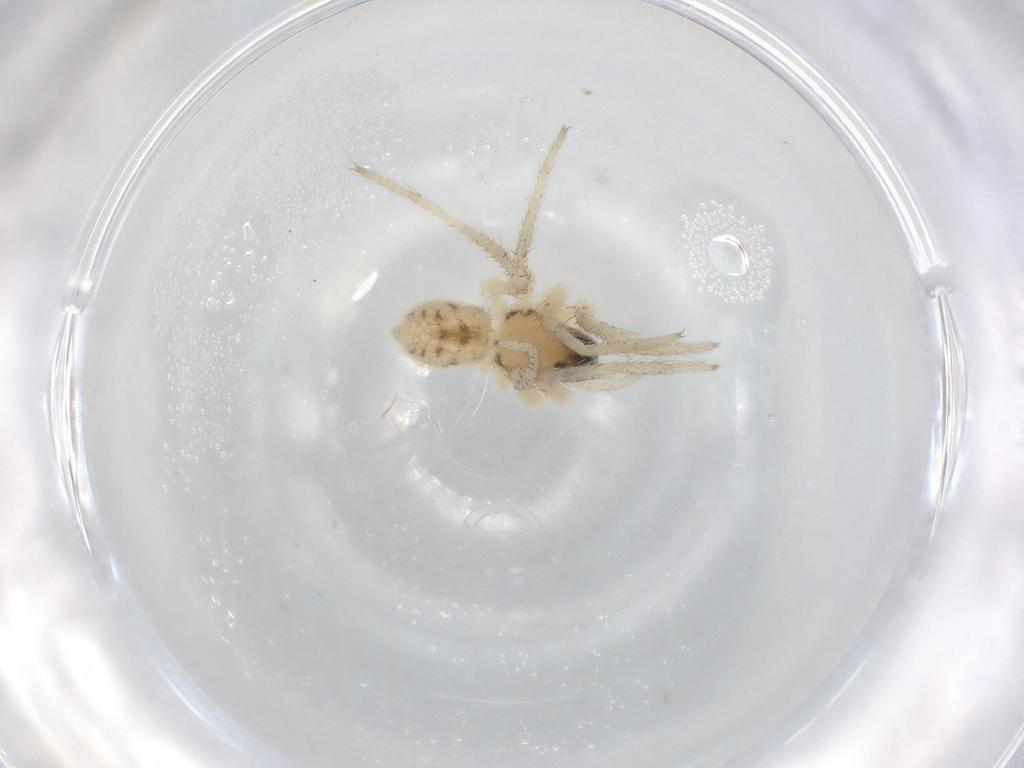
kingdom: Animalia
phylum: Arthropoda
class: Arachnida
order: Araneae
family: Lycosidae
